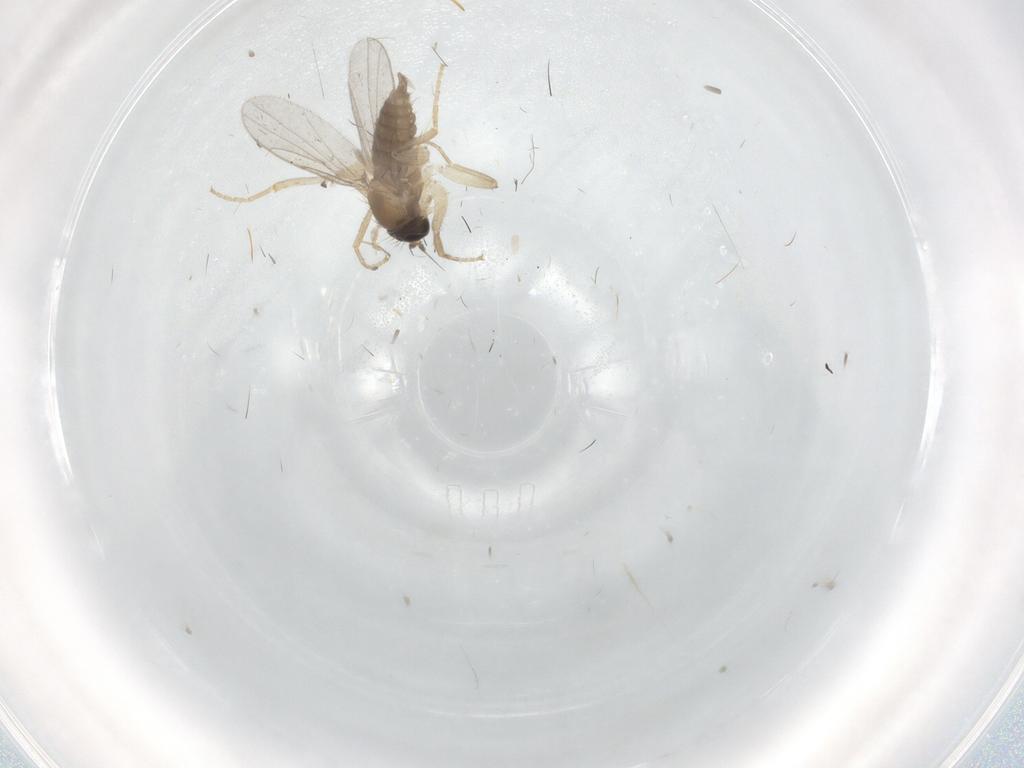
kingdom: Animalia
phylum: Arthropoda
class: Insecta
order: Diptera
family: Hybotidae
